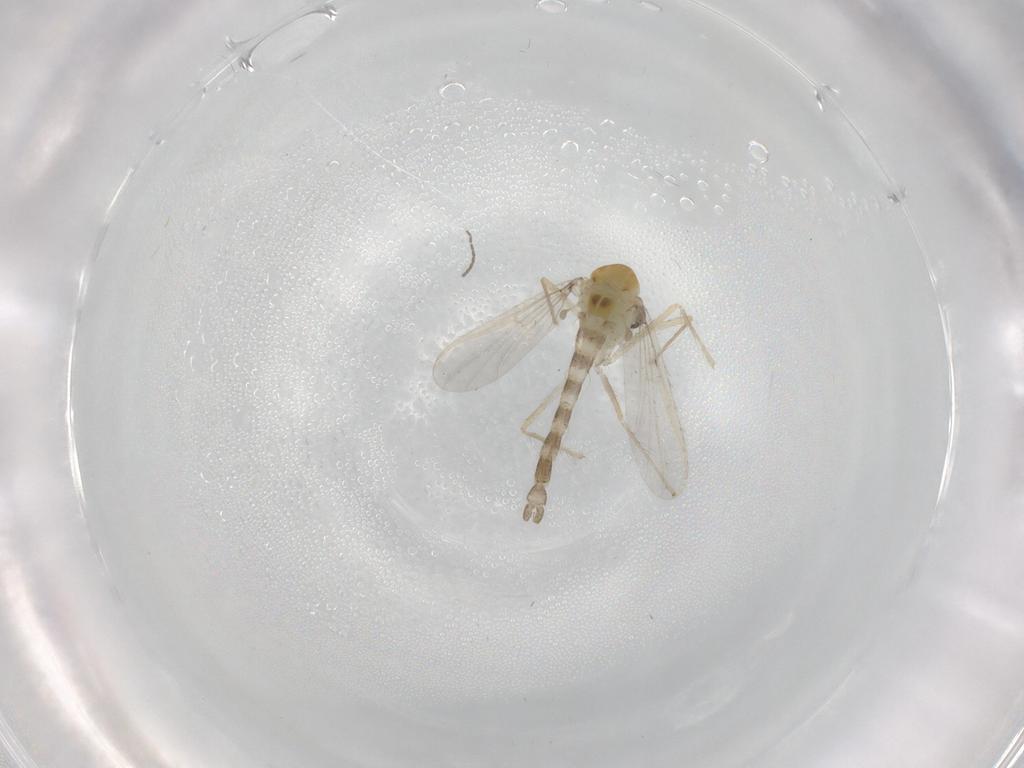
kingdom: Animalia
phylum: Arthropoda
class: Insecta
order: Diptera
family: Chironomidae
